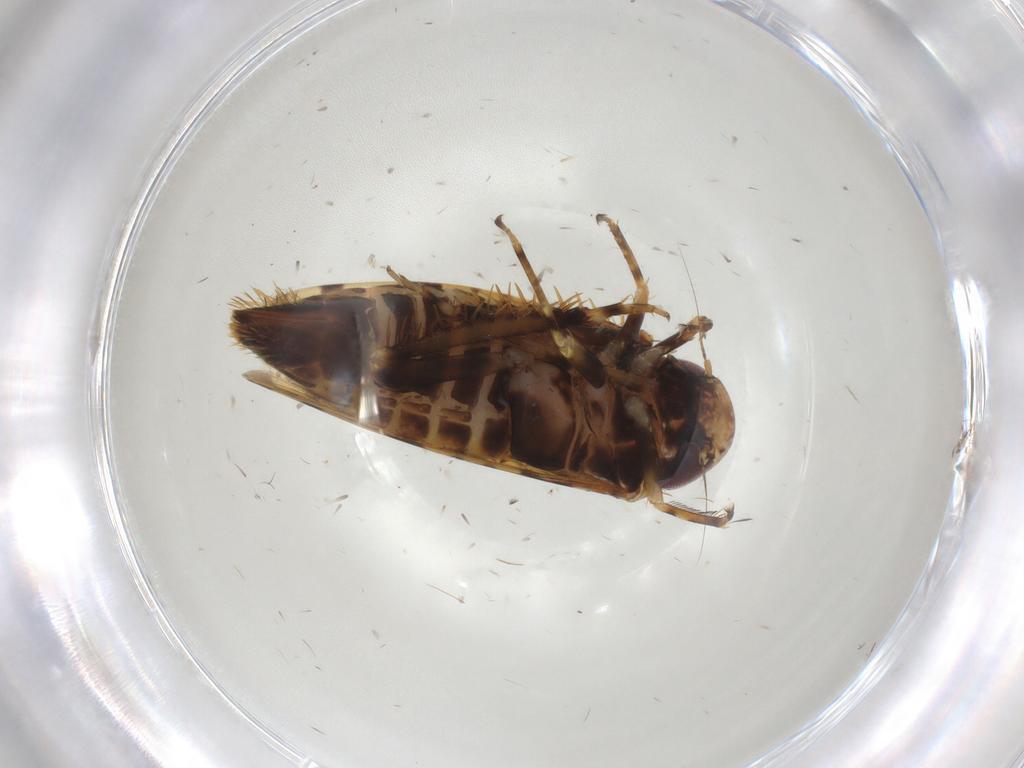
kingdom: Animalia
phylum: Arthropoda
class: Insecta
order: Hemiptera
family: Cicadellidae
